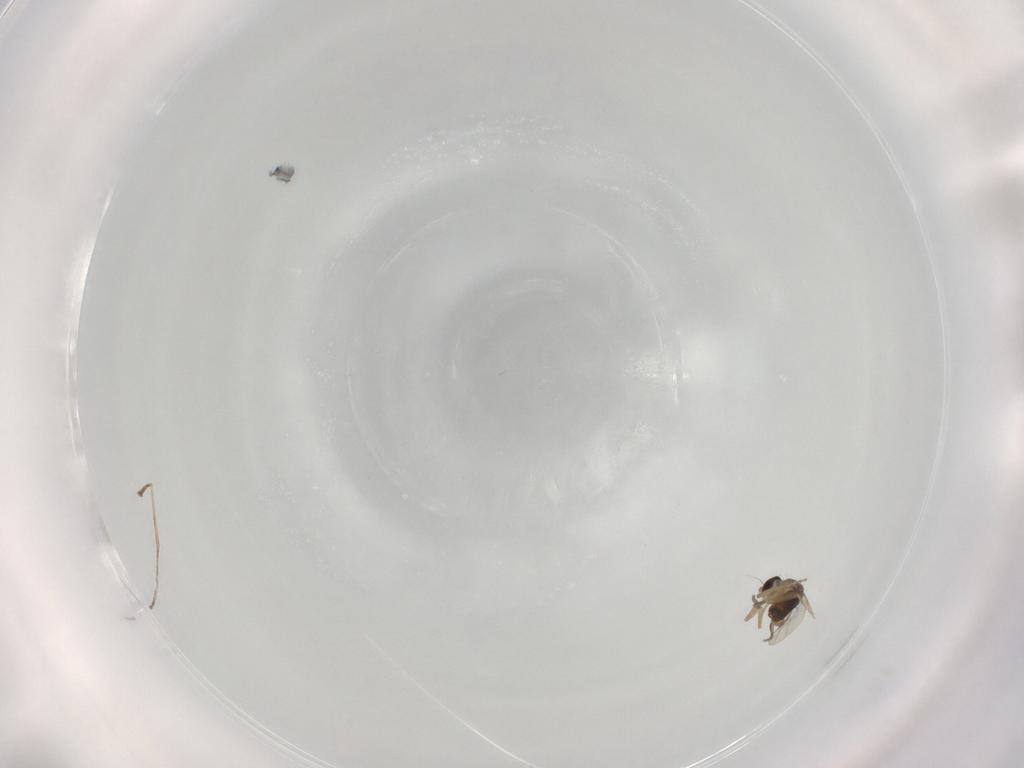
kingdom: Animalia
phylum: Arthropoda
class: Insecta
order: Diptera
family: Phoridae
